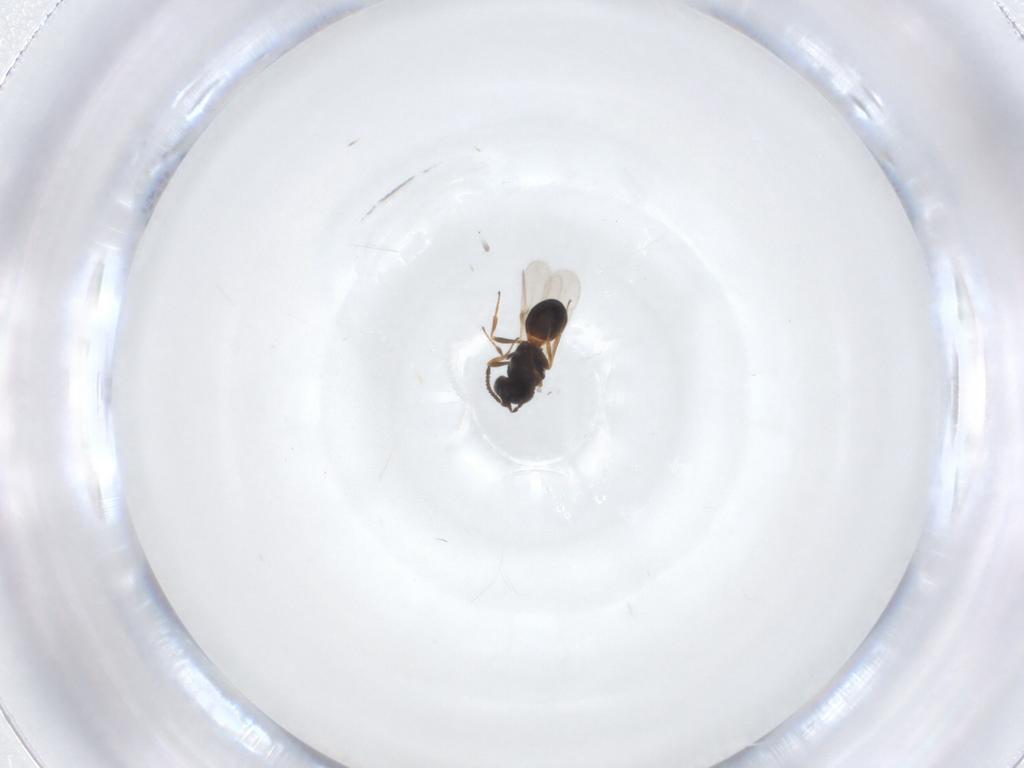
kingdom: Animalia
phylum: Arthropoda
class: Arachnida
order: Araneae
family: Pholcidae
